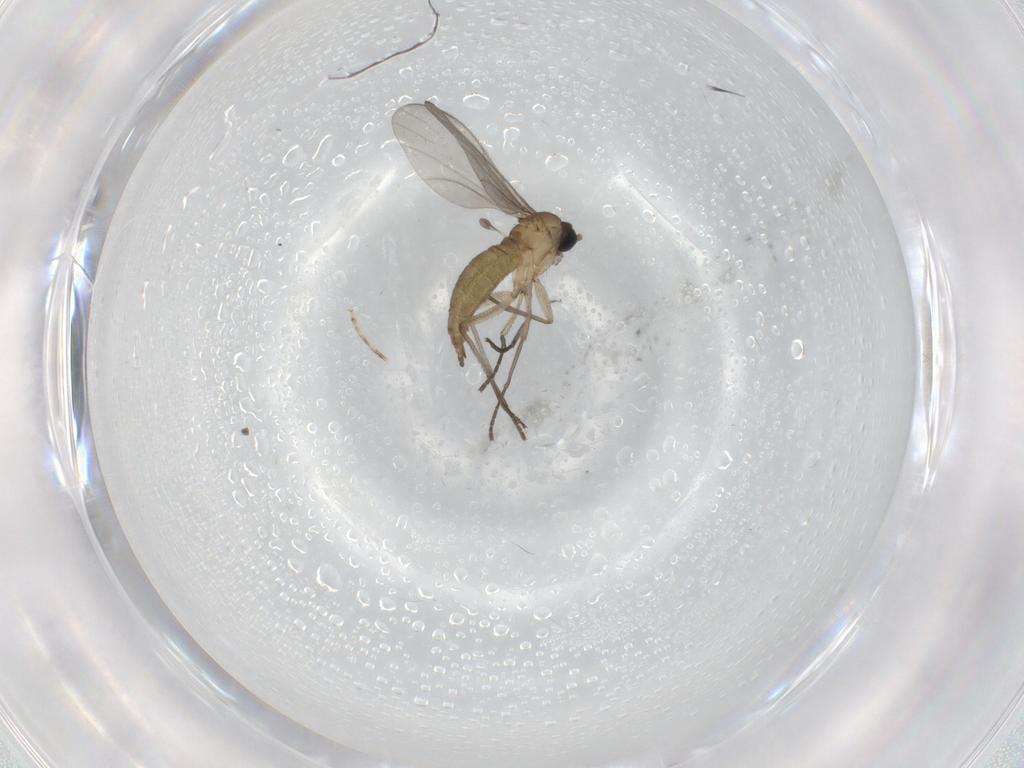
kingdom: Animalia
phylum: Arthropoda
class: Insecta
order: Diptera
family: Sciaridae
